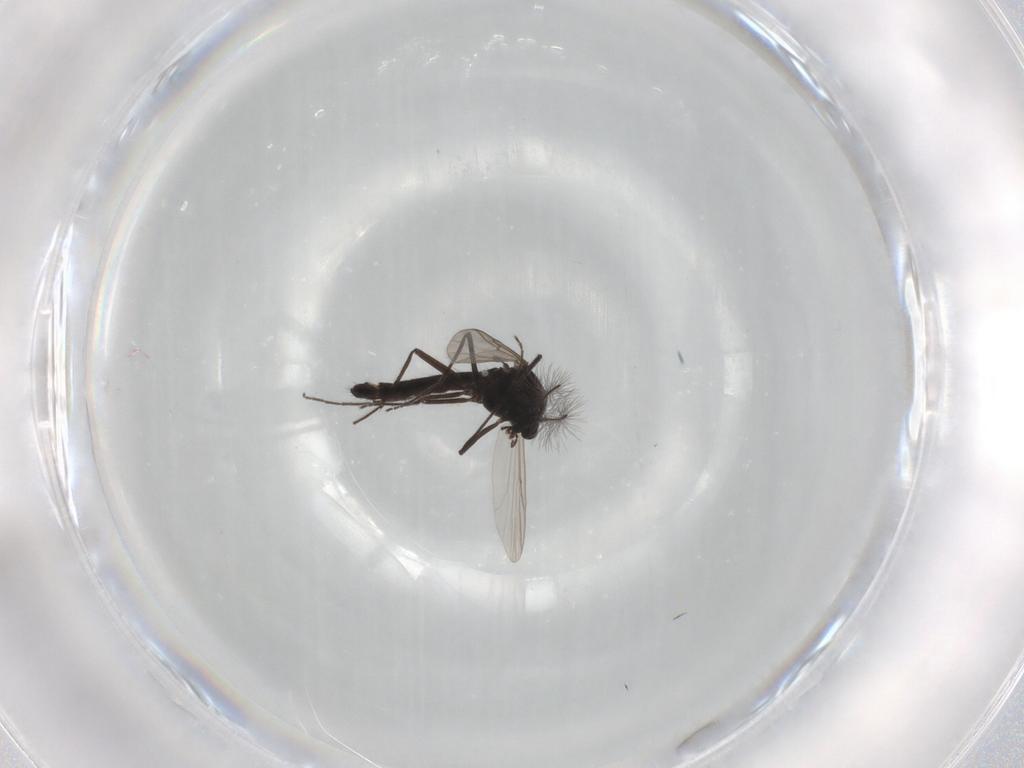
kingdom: Animalia
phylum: Arthropoda
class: Insecta
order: Diptera
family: Chironomidae
